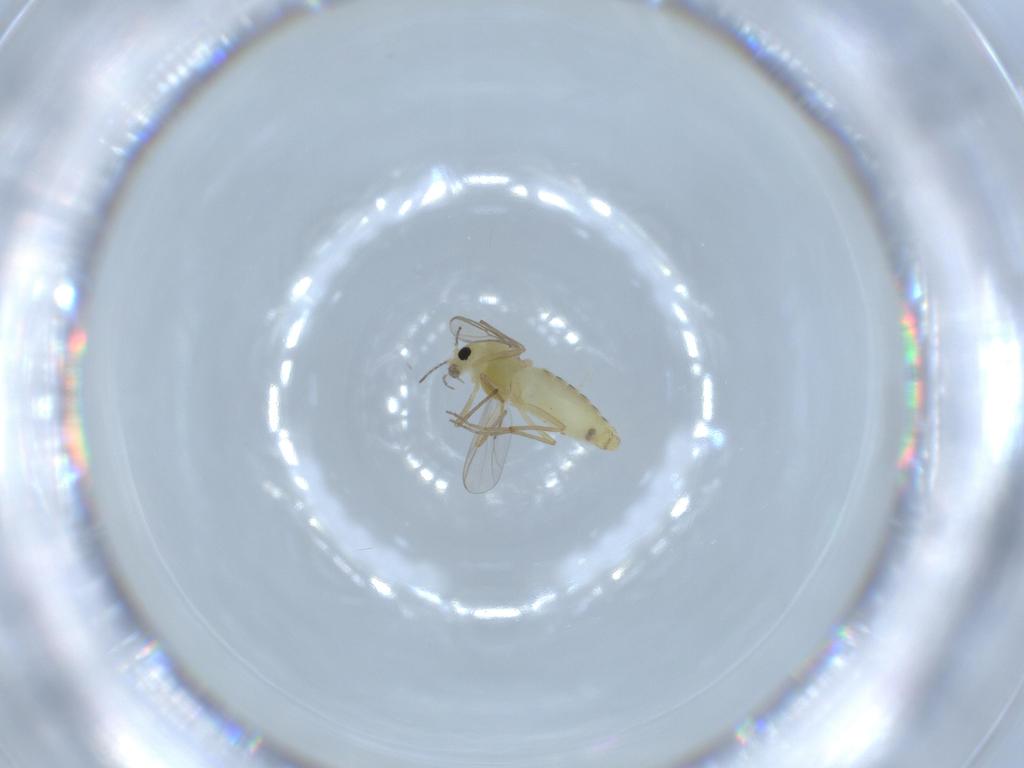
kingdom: Animalia
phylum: Arthropoda
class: Insecta
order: Diptera
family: Chironomidae
